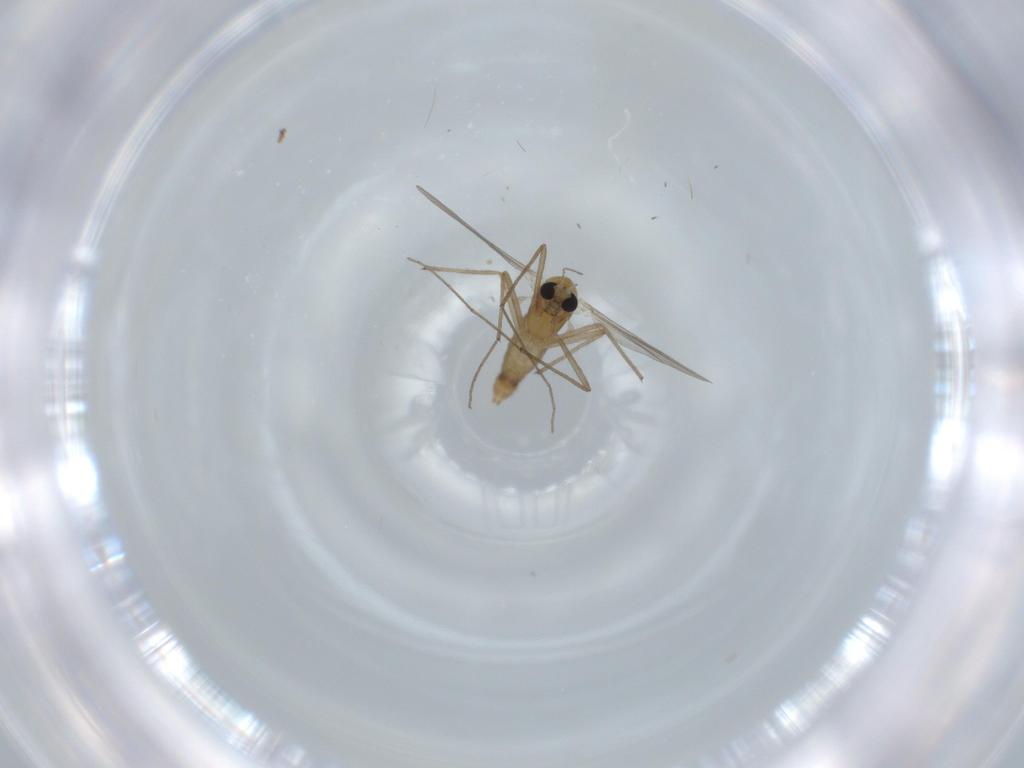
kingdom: Animalia
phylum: Arthropoda
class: Insecta
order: Diptera
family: Chironomidae
